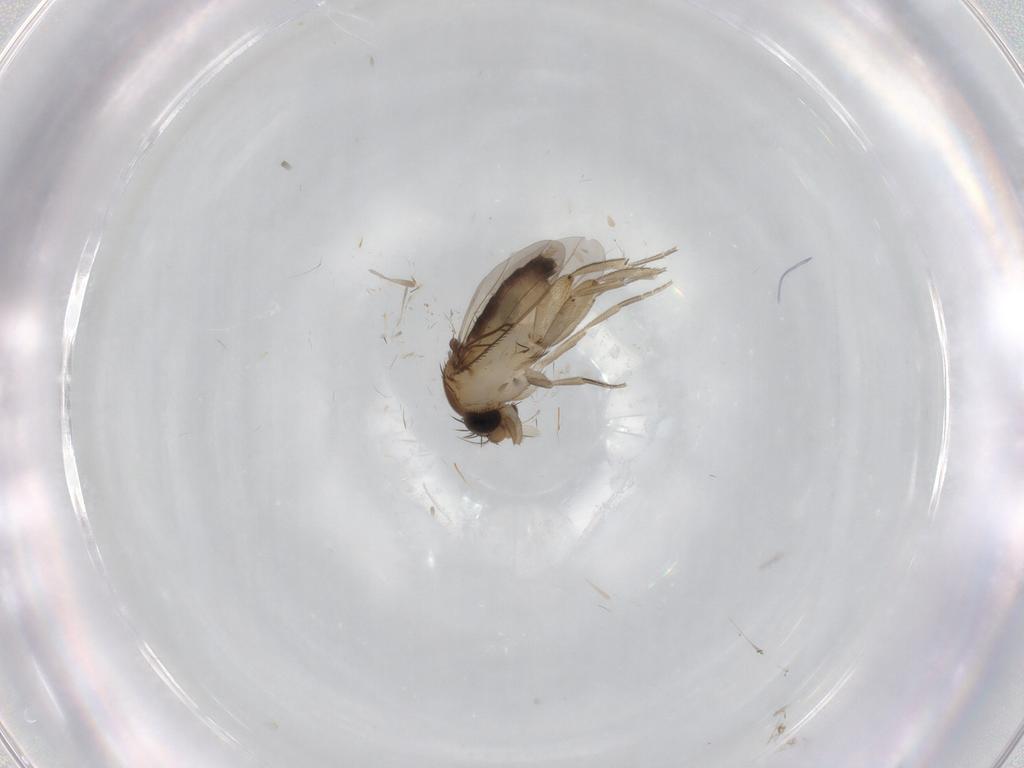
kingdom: Animalia
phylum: Arthropoda
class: Insecta
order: Diptera
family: Phoridae
